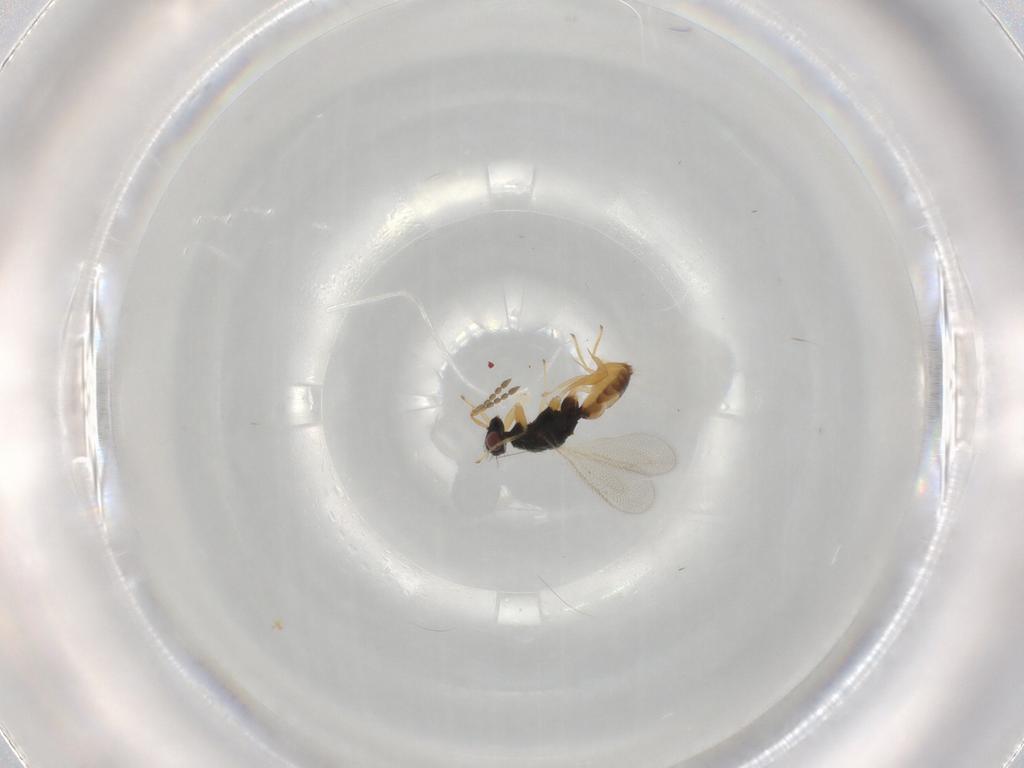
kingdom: Animalia
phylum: Arthropoda
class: Insecta
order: Hymenoptera
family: Eulophidae
